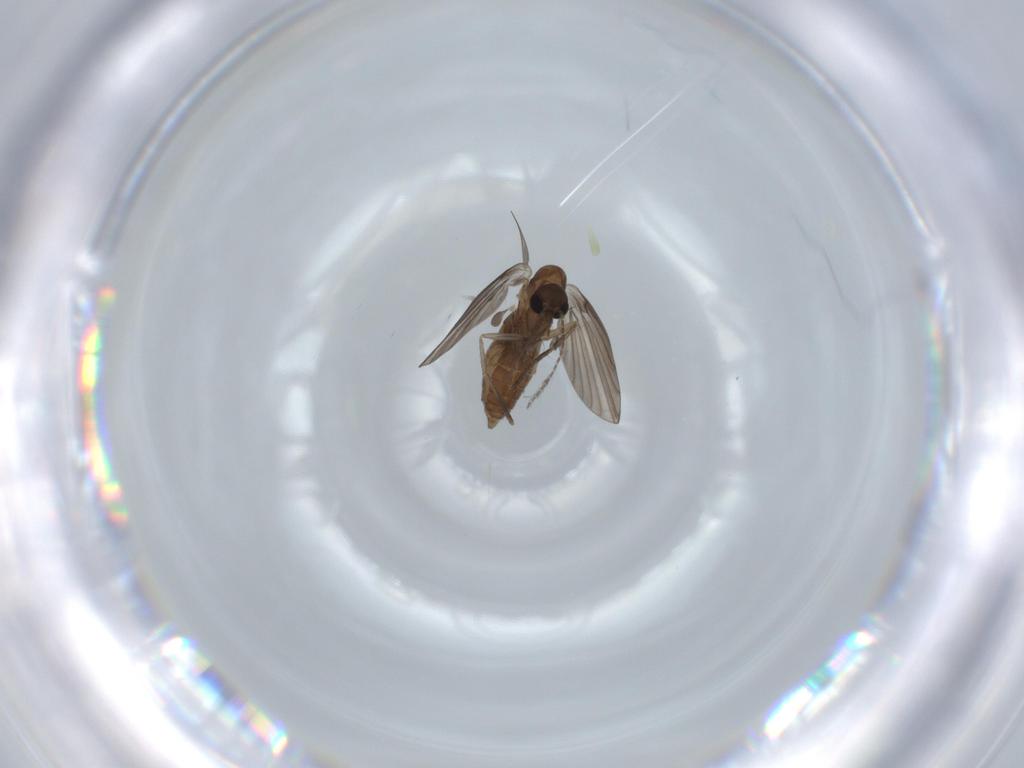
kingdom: Animalia
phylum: Arthropoda
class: Insecta
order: Diptera
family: Psychodidae
